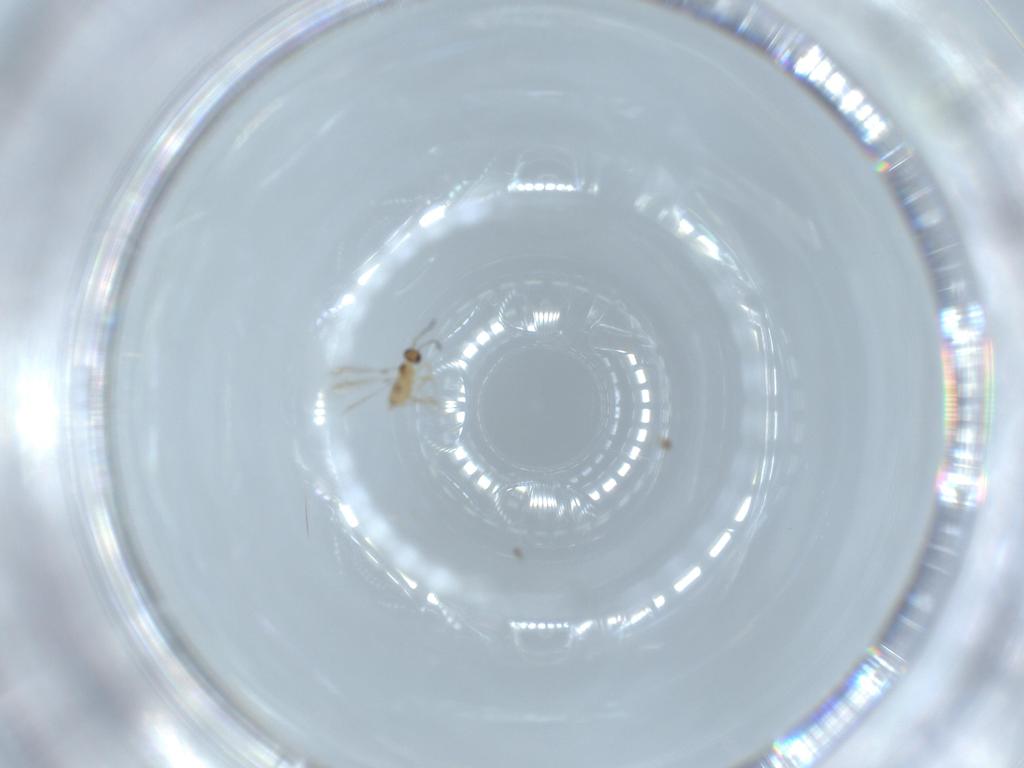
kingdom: Animalia
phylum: Arthropoda
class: Insecta
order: Hymenoptera
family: Mymaridae
